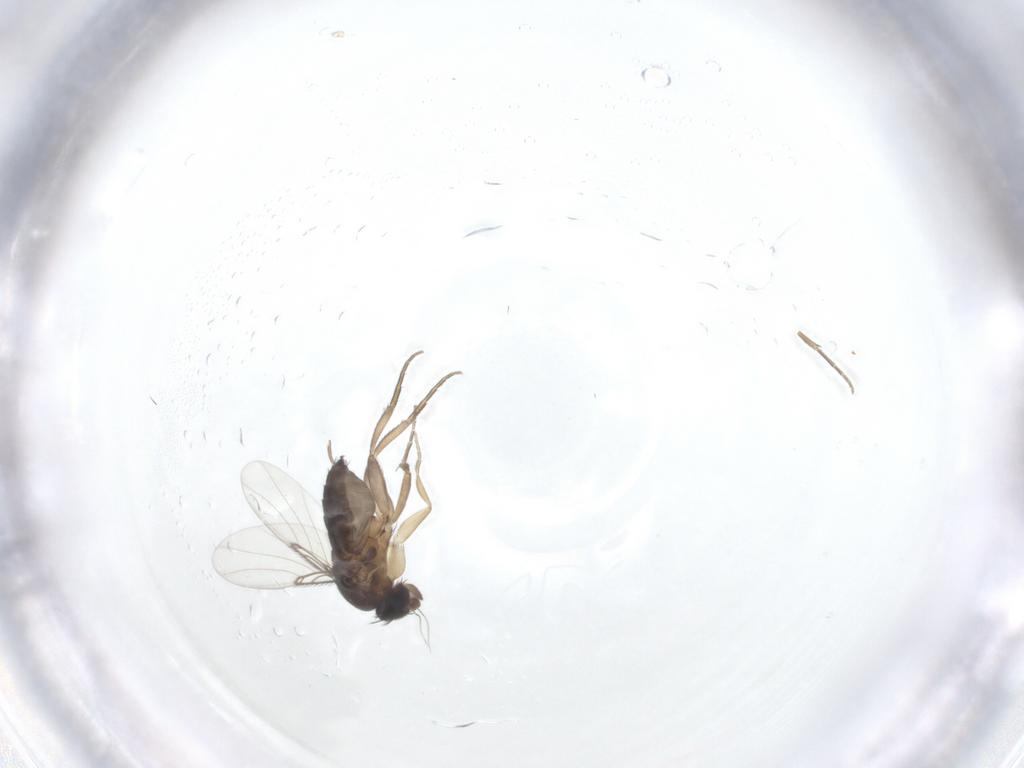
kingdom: Animalia
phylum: Arthropoda
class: Insecta
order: Diptera
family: Phoridae
